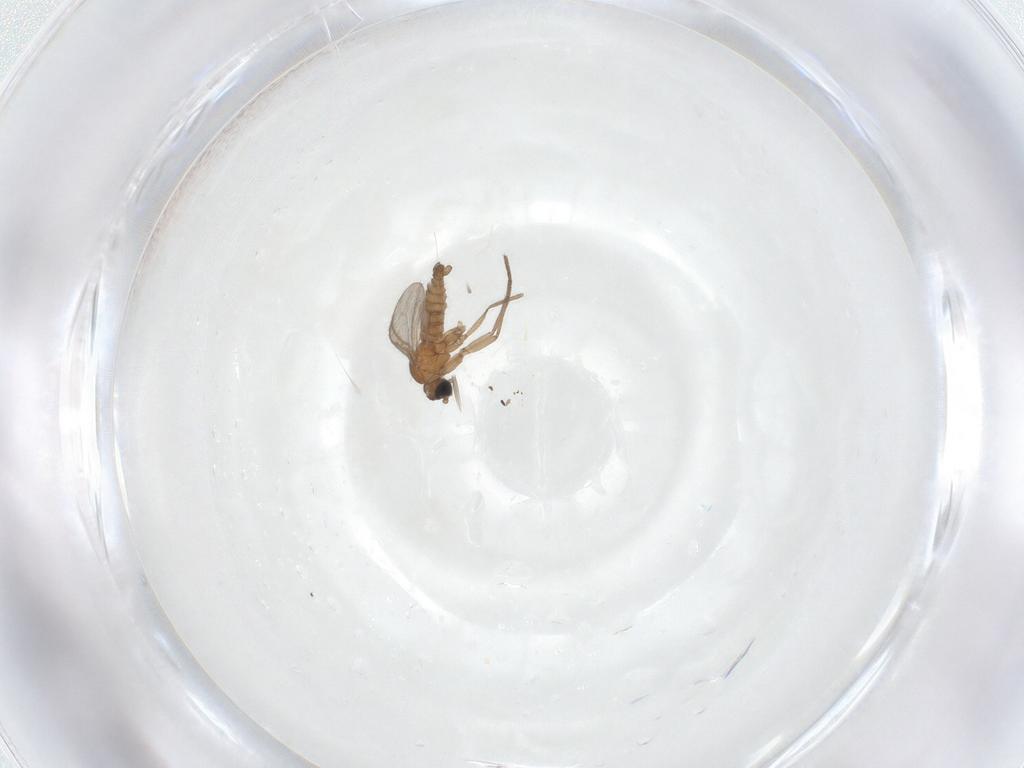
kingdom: Animalia
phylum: Arthropoda
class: Insecta
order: Diptera
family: Sciaridae
